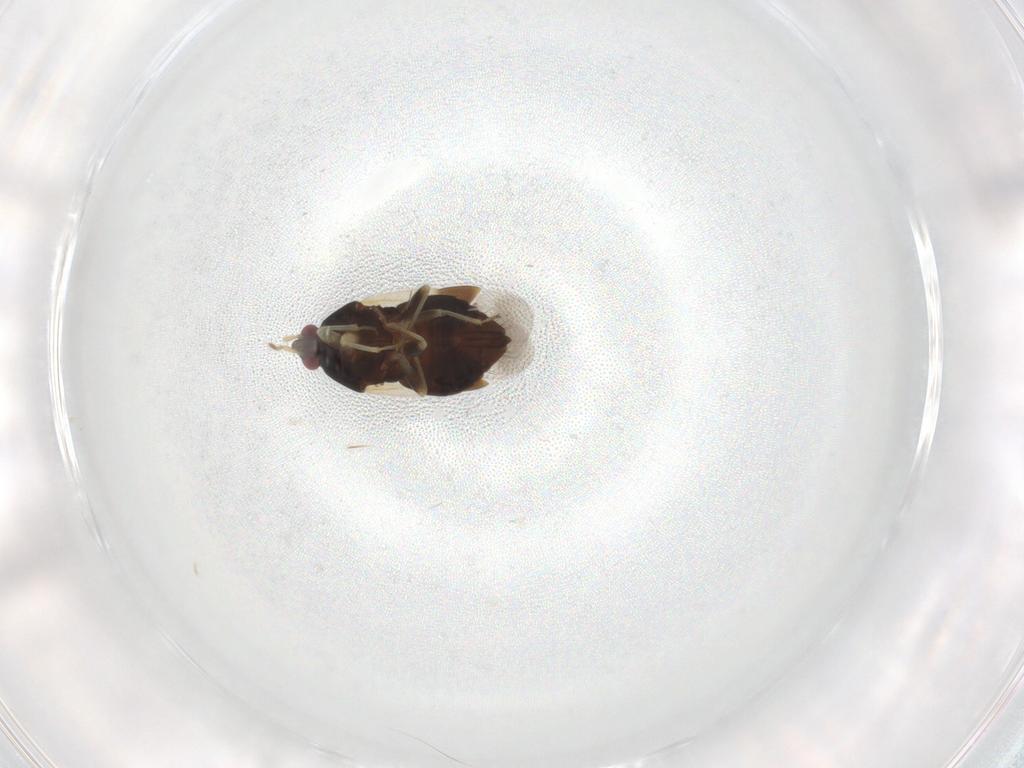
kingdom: Animalia
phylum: Arthropoda
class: Insecta
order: Hemiptera
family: Anthocoridae
